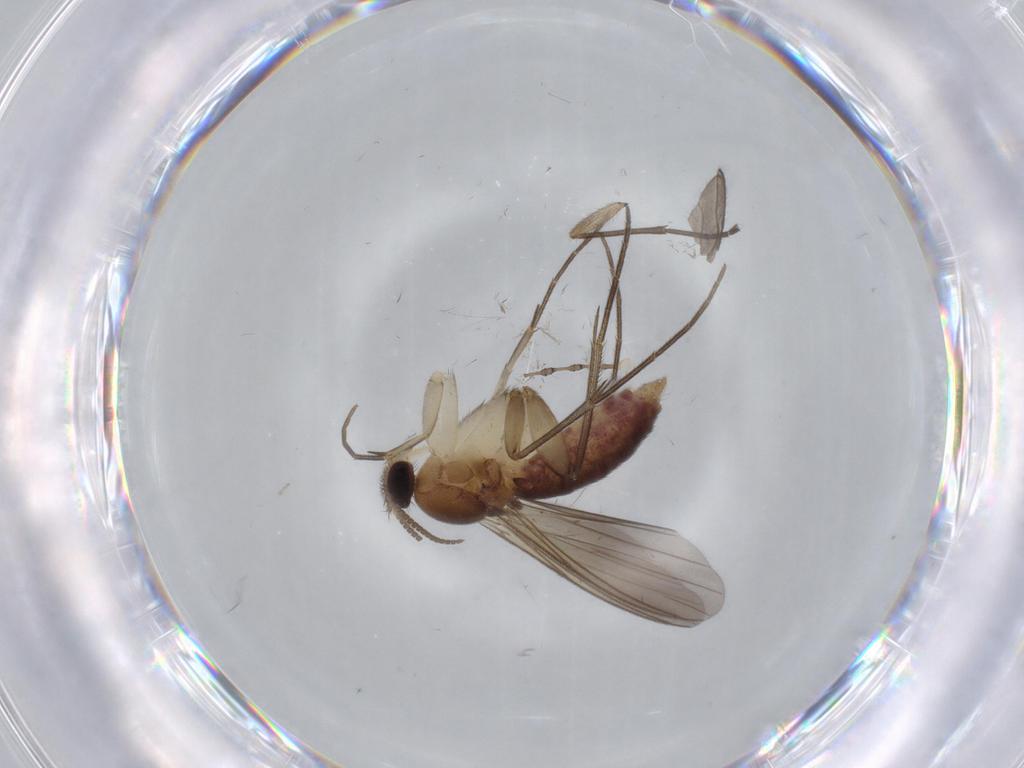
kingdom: Animalia
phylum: Arthropoda
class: Insecta
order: Diptera
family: Mycetophilidae
